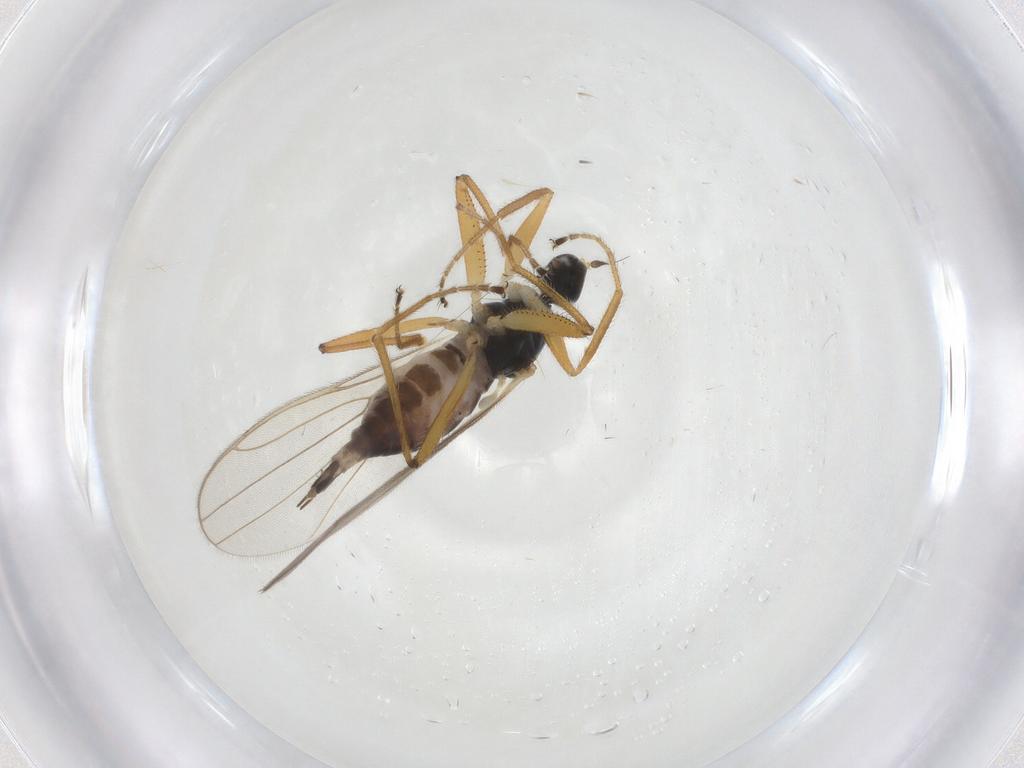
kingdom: Animalia
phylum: Arthropoda
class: Insecta
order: Diptera
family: Hybotidae
